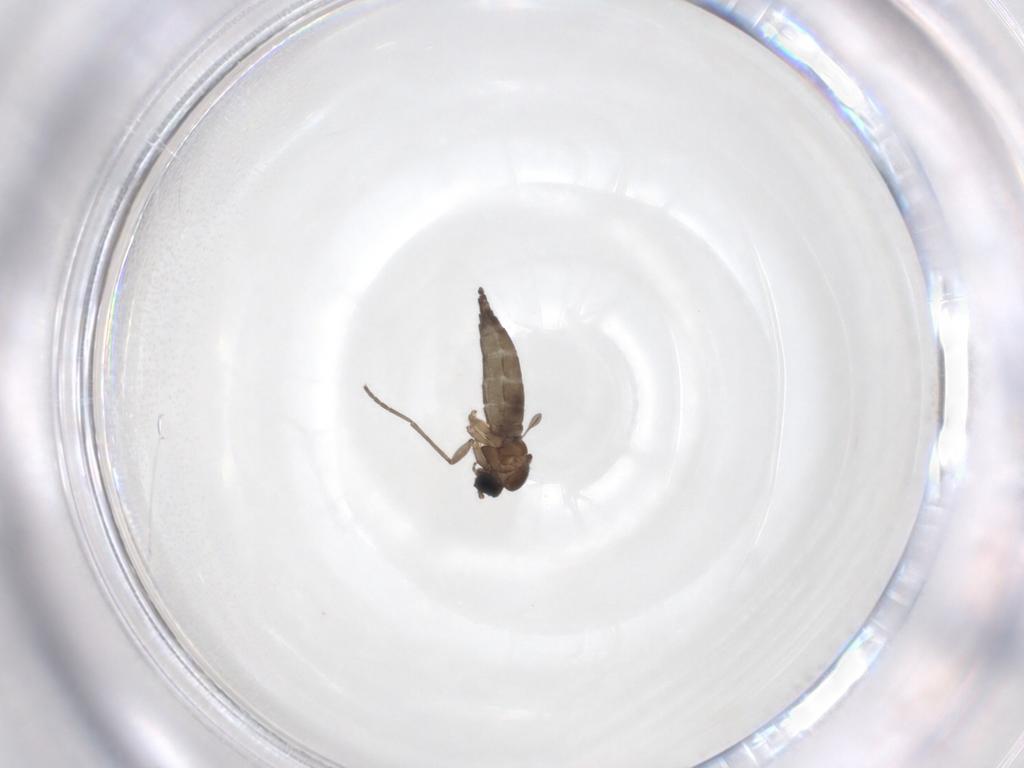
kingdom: Animalia
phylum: Arthropoda
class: Insecta
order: Diptera
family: Sciaridae
